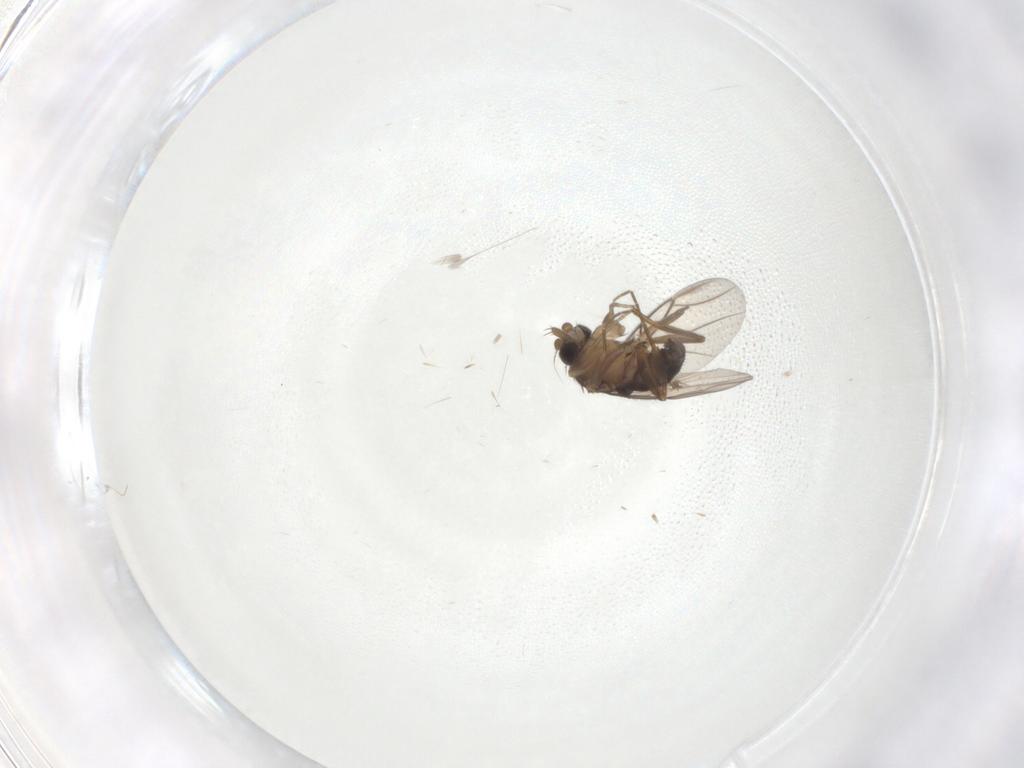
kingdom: Animalia
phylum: Arthropoda
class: Insecta
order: Diptera
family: Phoridae
